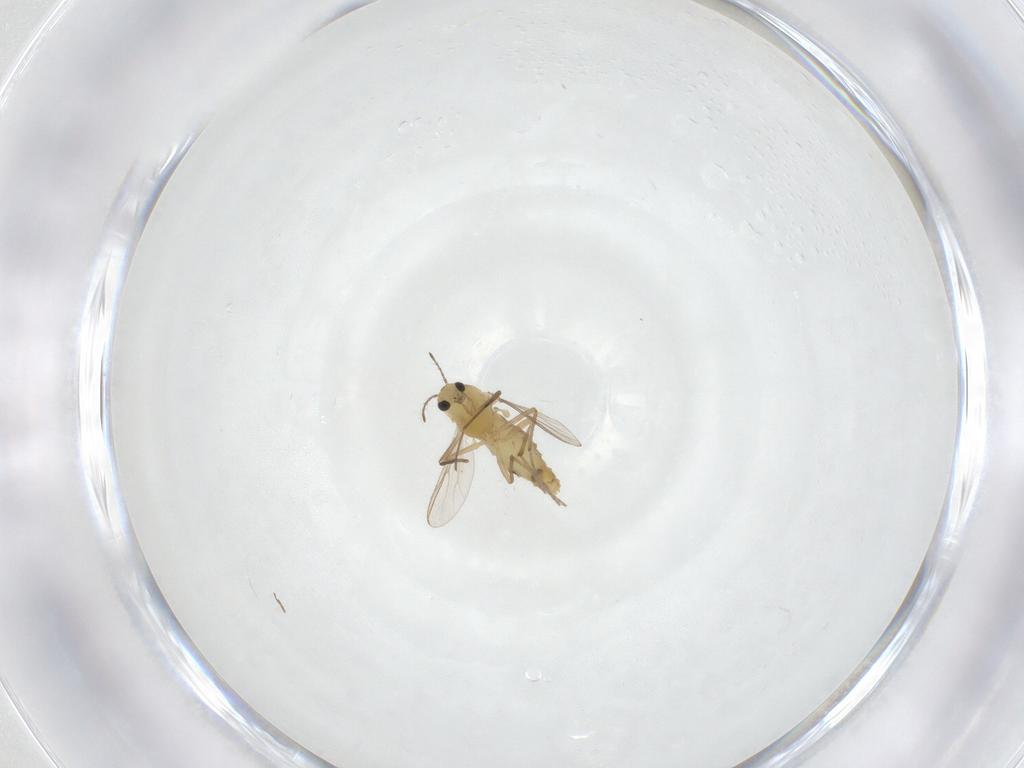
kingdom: Animalia
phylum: Arthropoda
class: Insecta
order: Diptera
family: Chironomidae
